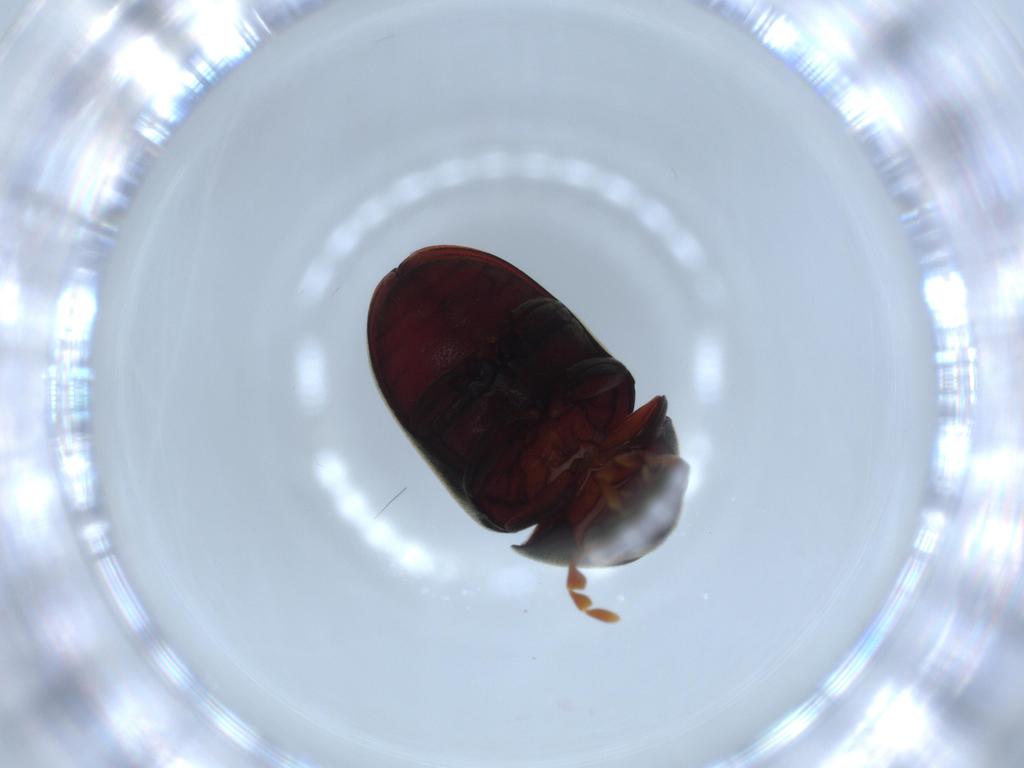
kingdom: Animalia
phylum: Arthropoda
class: Insecta
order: Coleoptera
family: Ptinidae
